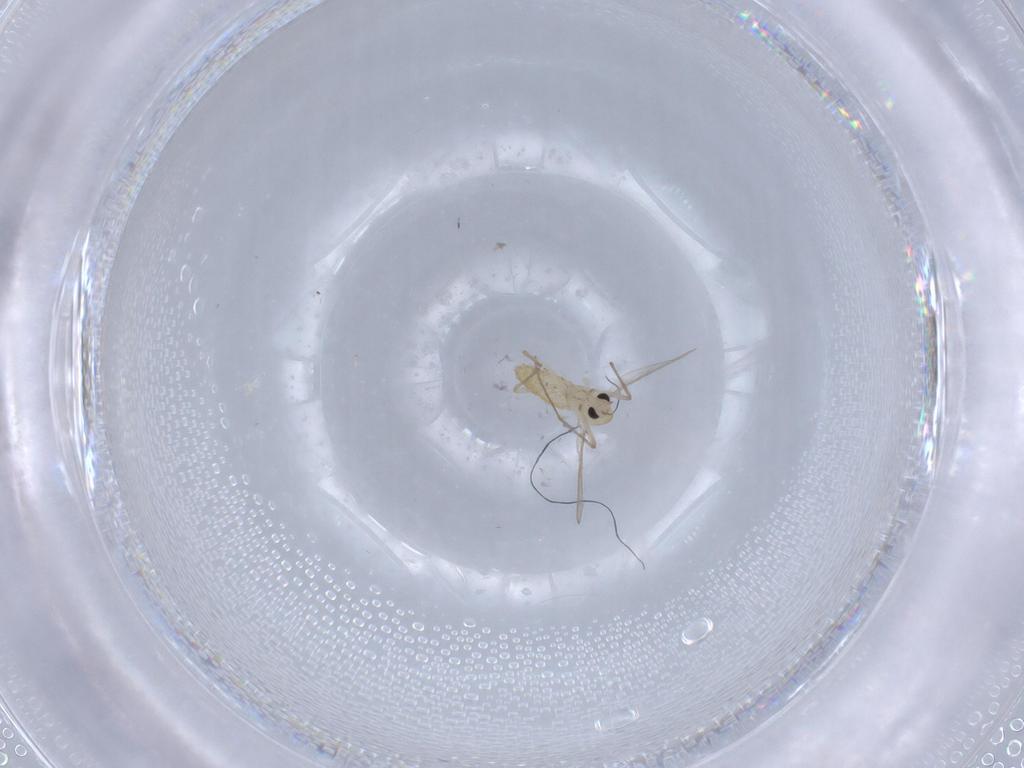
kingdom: Animalia
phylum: Arthropoda
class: Insecta
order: Diptera
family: Chironomidae
